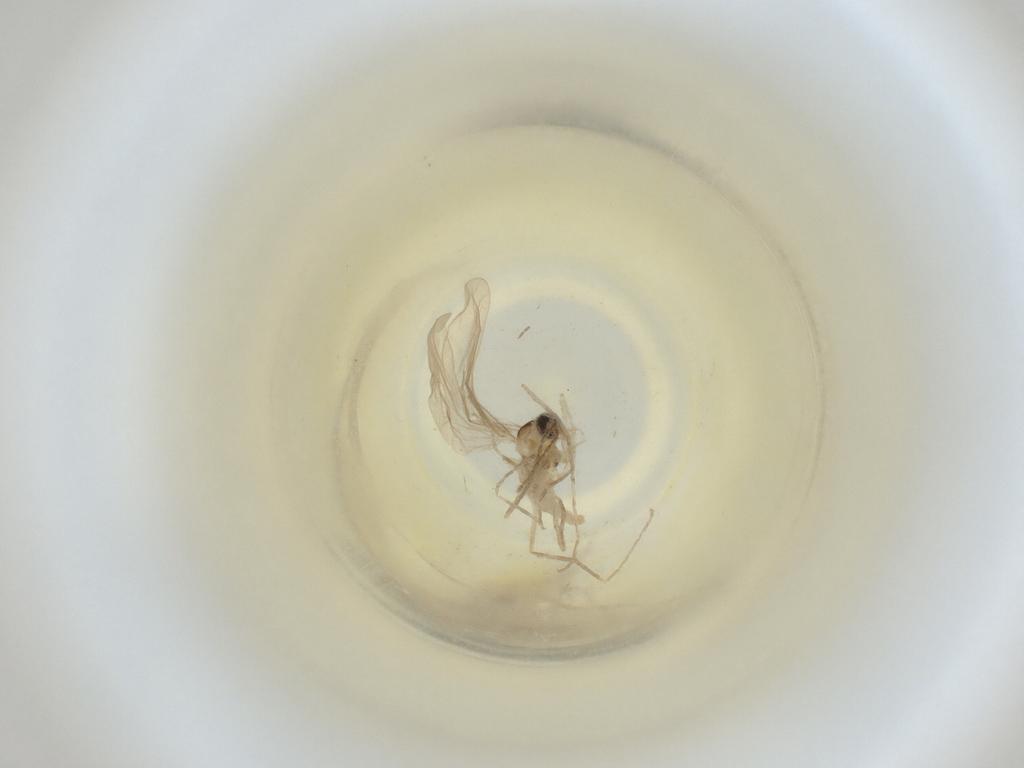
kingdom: Animalia
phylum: Arthropoda
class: Insecta
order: Diptera
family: Cecidomyiidae
